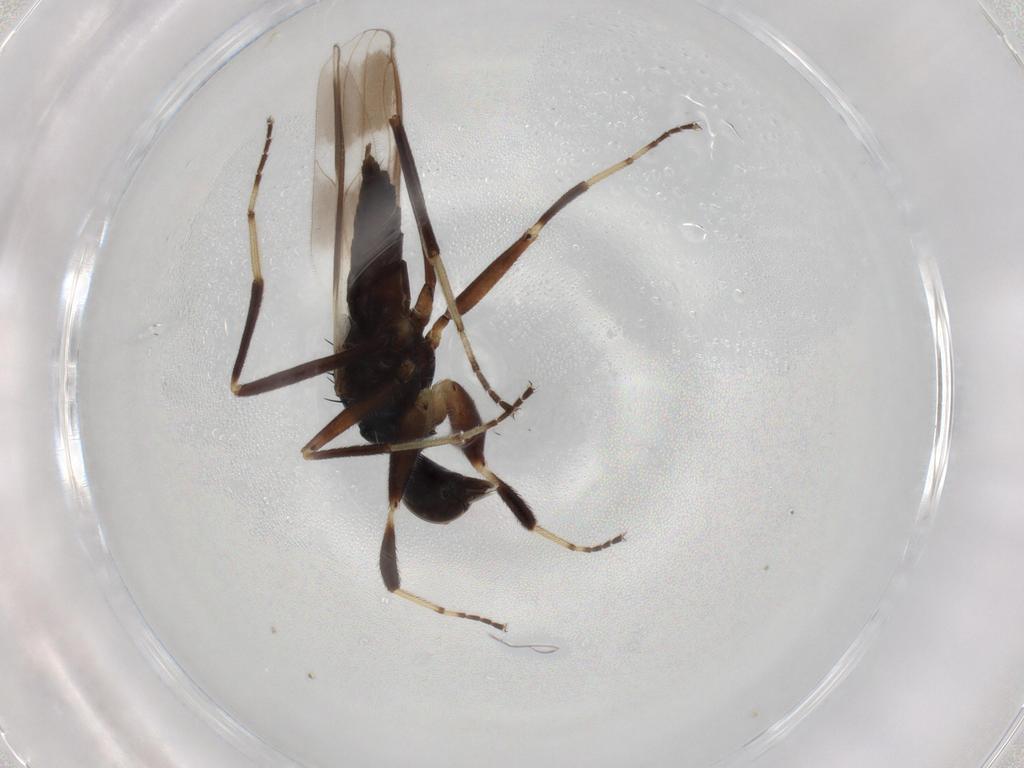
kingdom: Animalia
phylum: Arthropoda
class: Insecta
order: Diptera
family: Hybotidae
